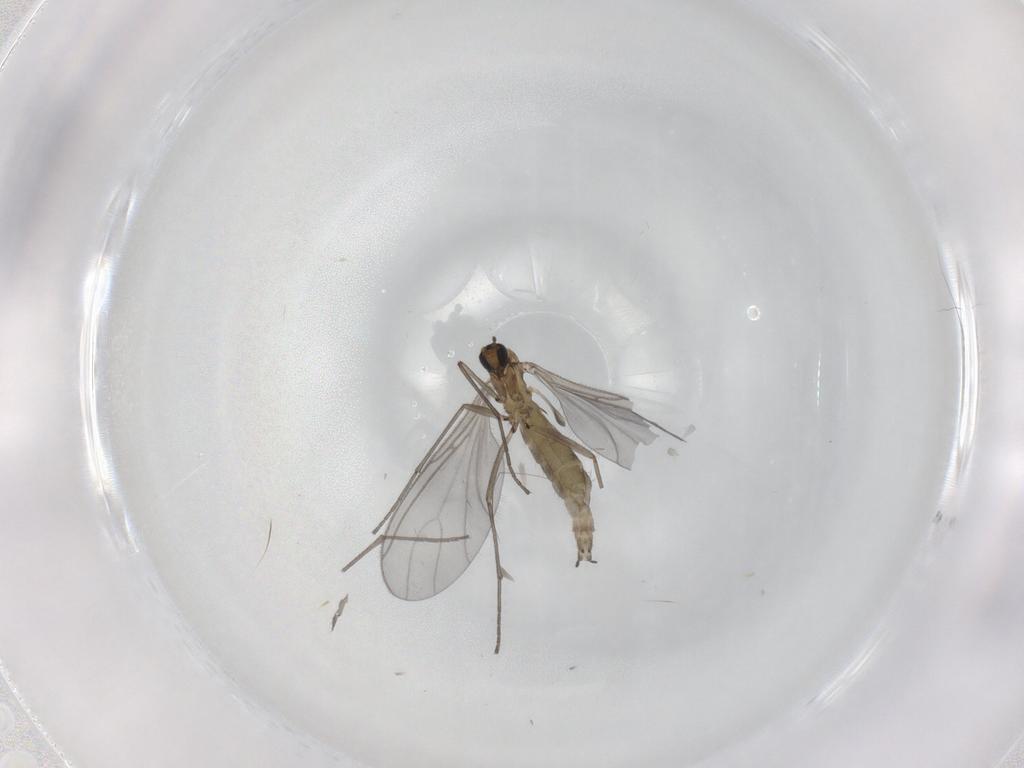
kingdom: Animalia
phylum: Arthropoda
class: Insecta
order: Diptera
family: Sciaridae
